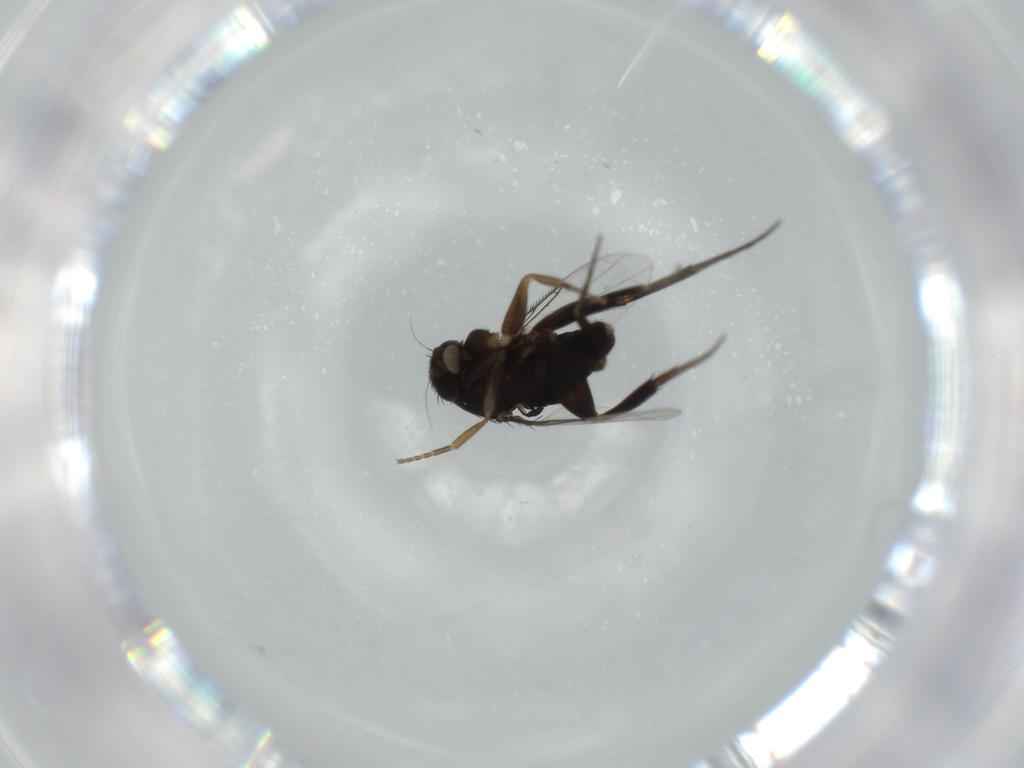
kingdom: Animalia
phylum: Arthropoda
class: Insecta
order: Diptera
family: Phoridae
